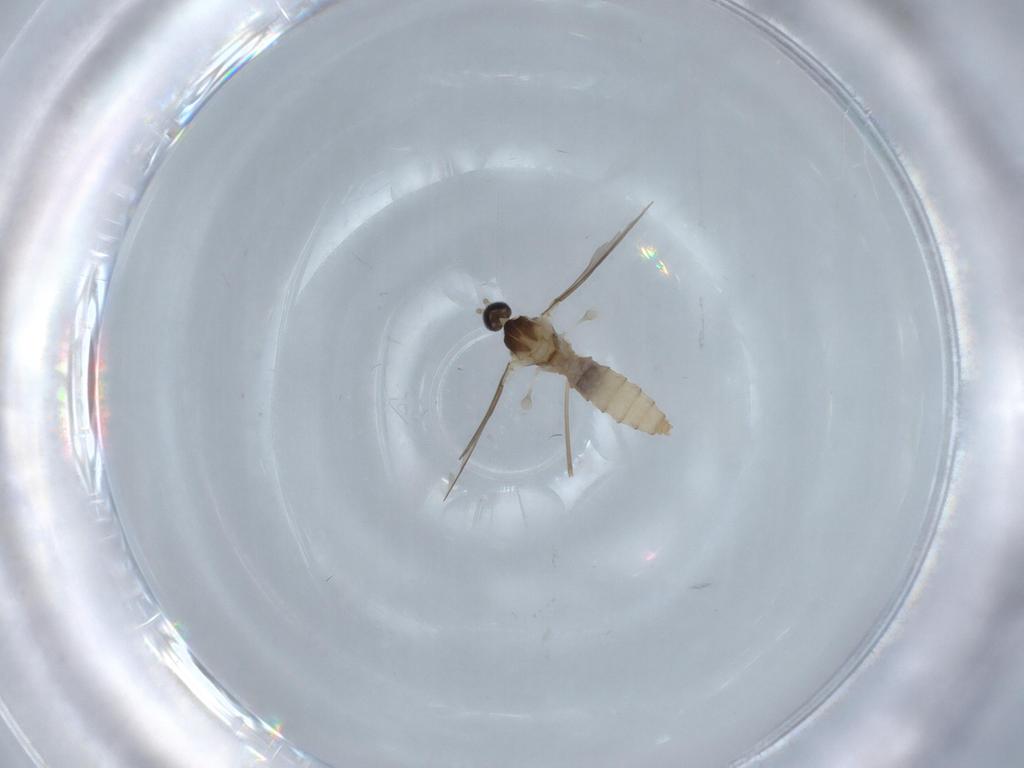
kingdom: Animalia
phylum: Arthropoda
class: Insecta
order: Diptera
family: Cecidomyiidae
